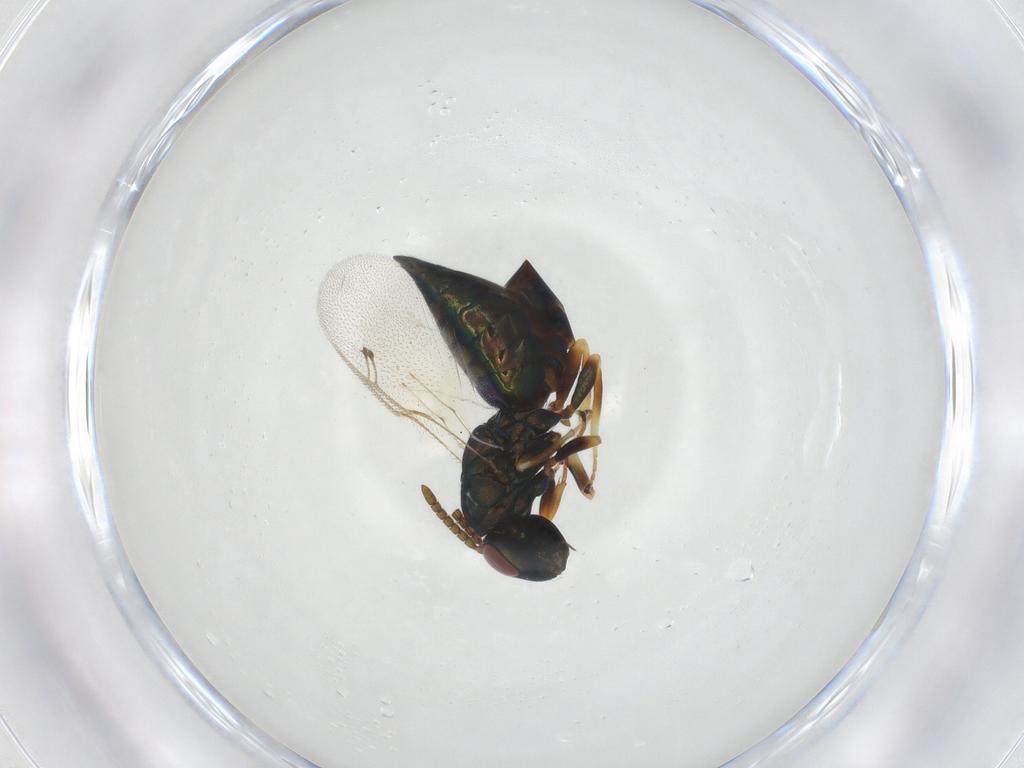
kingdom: Animalia
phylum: Arthropoda
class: Insecta
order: Hymenoptera
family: Pteromalidae
